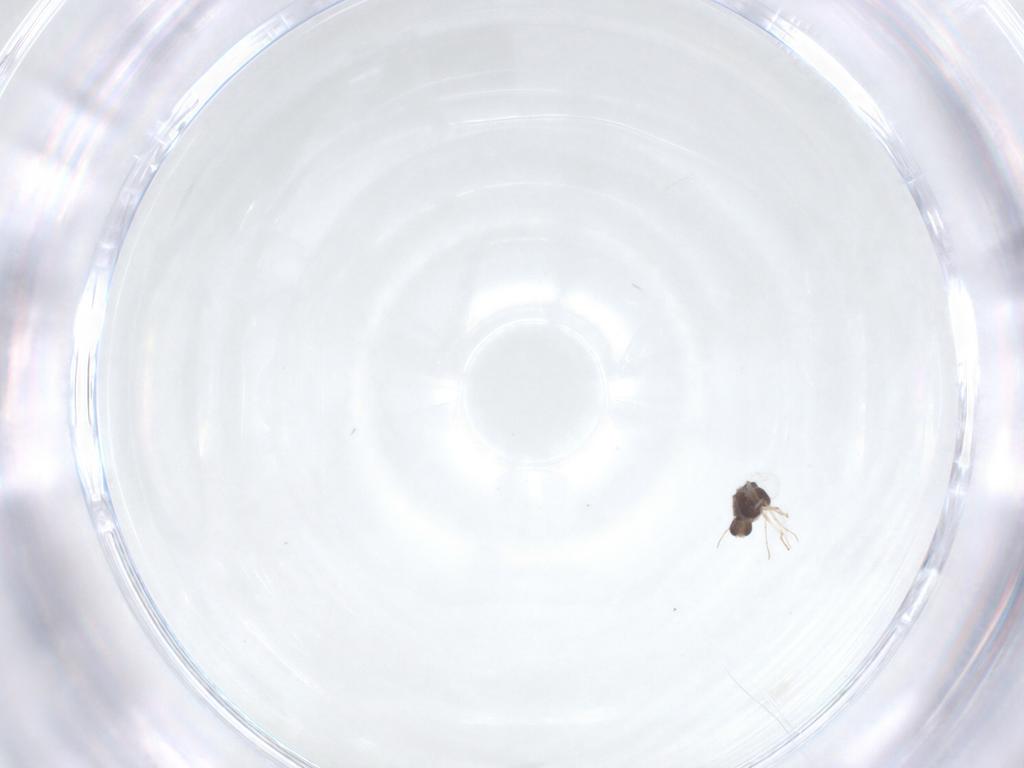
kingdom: Animalia
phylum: Arthropoda
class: Insecta
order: Diptera
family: Chironomidae
